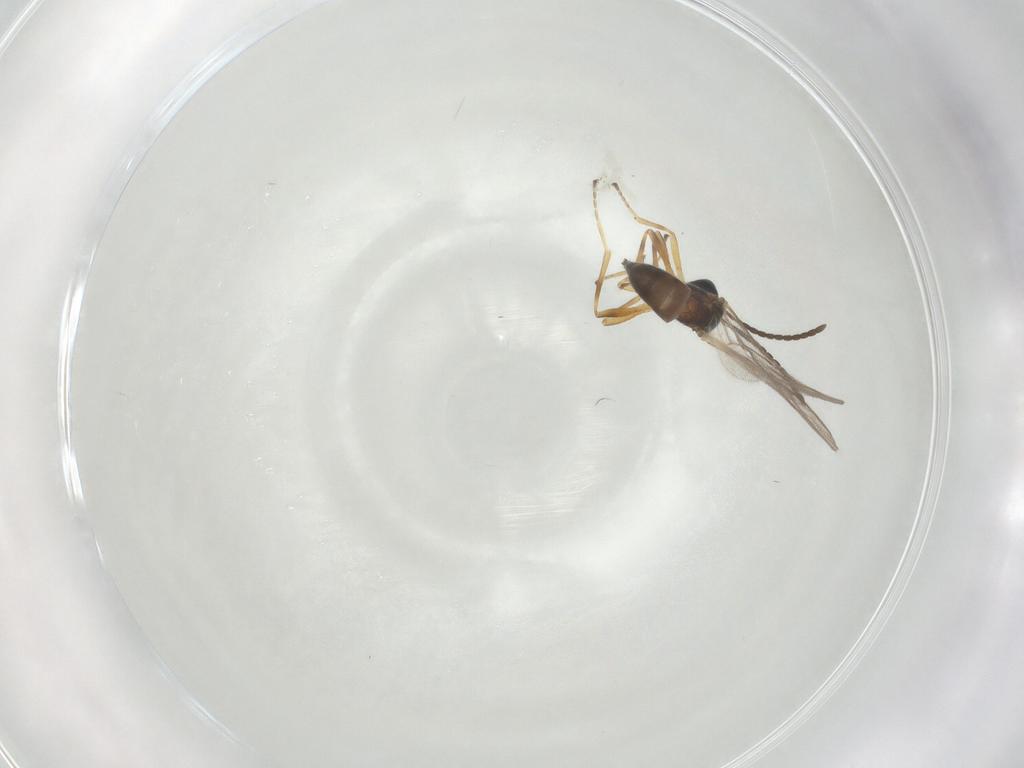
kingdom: Animalia
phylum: Arthropoda
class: Insecta
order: Hymenoptera
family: Braconidae
